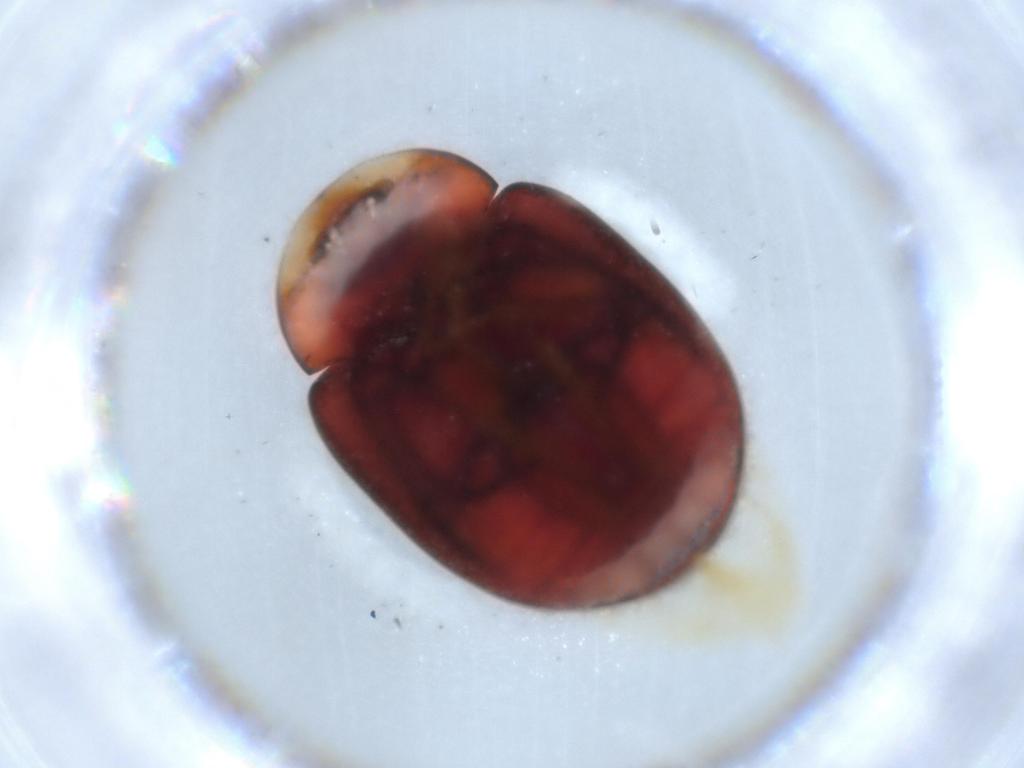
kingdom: Animalia
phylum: Arthropoda
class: Insecta
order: Coleoptera
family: Coccinellidae
